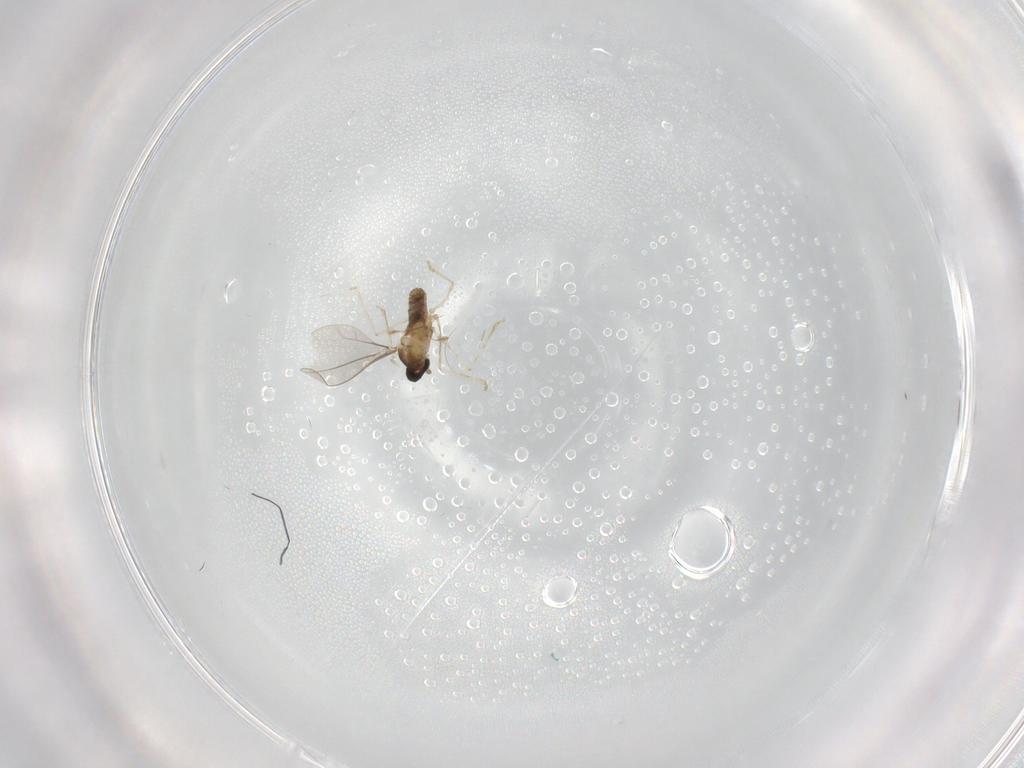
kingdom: Animalia
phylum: Arthropoda
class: Insecta
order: Diptera
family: Cecidomyiidae
